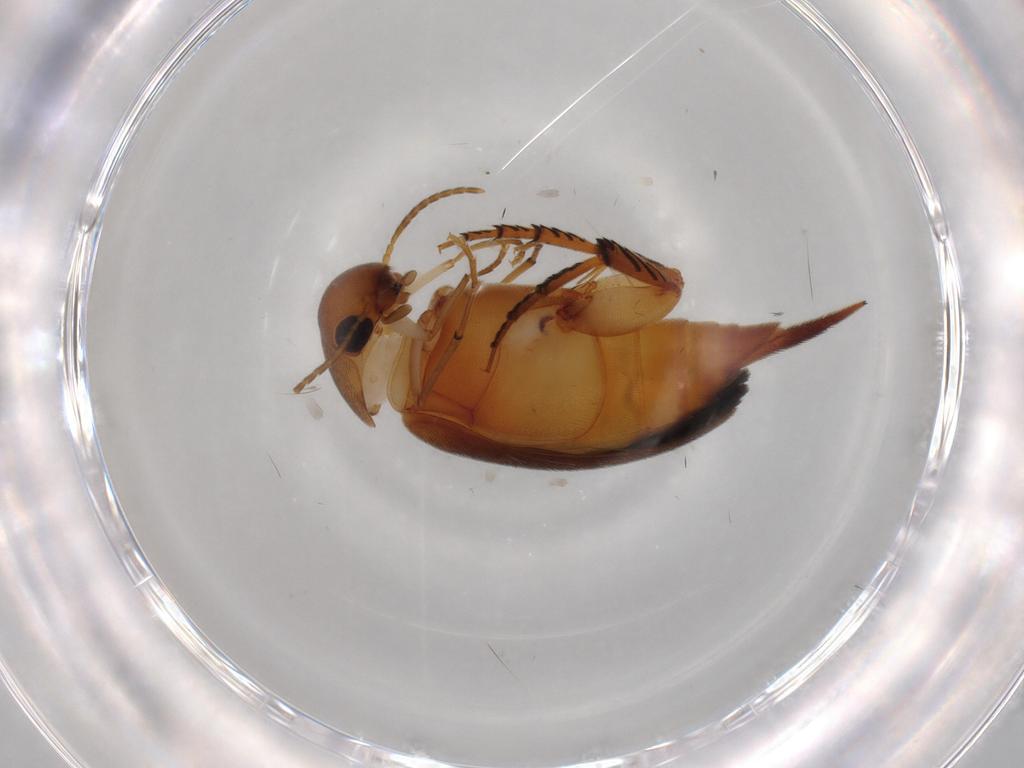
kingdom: Animalia
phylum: Arthropoda
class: Insecta
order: Coleoptera
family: Mordellidae
